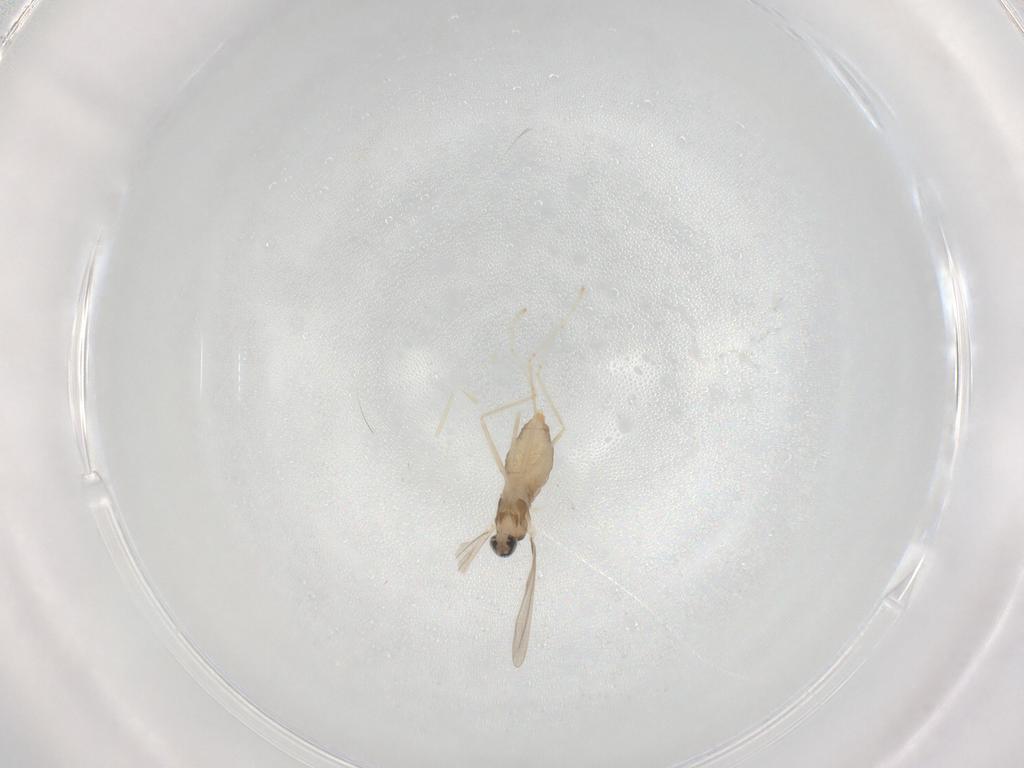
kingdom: Animalia
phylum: Arthropoda
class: Insecta
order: Diptera
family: Cecidomyiidae
